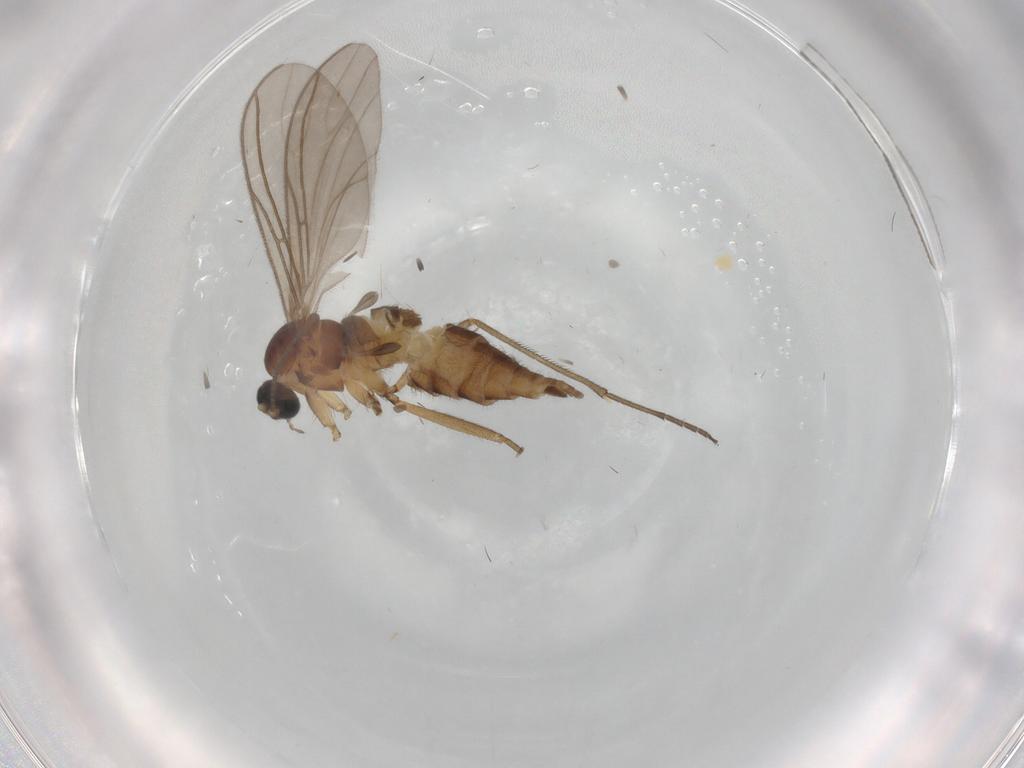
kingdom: Animalia
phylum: Arthropoda
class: Insecta
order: Diptera
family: Sciaridae
